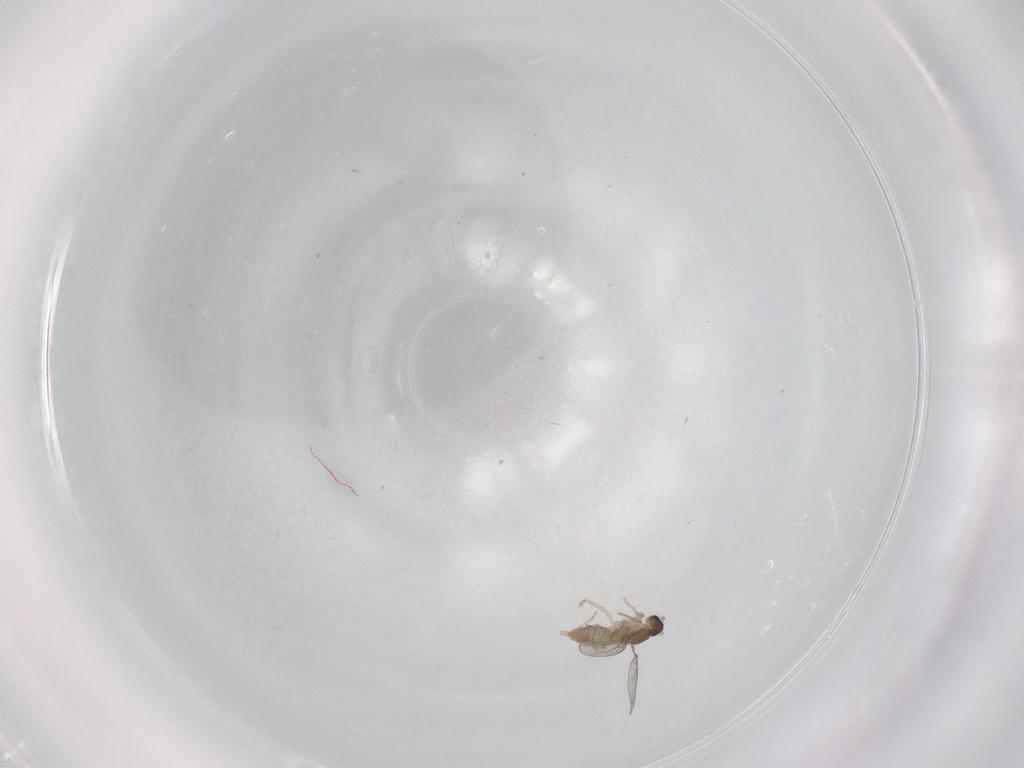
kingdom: Animalia
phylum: Arthropoda
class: Insecta
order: Diptera
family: Cecidomyiidae
